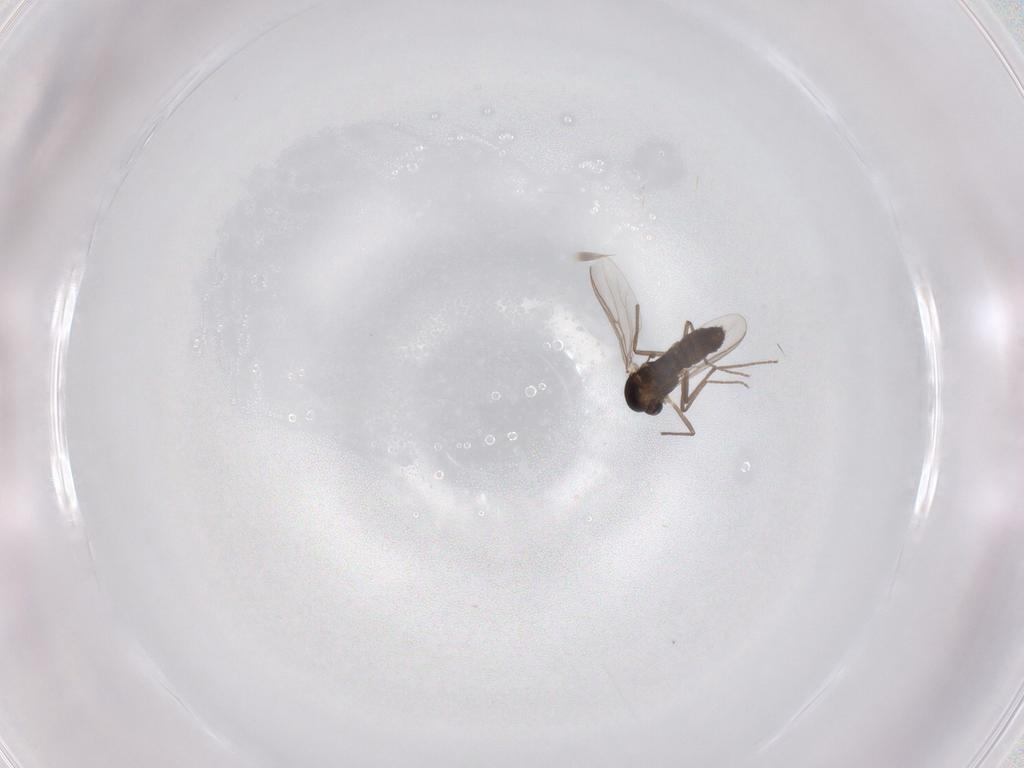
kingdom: Animalia
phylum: Arthropoda
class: Insecta
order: Diptera
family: Chironomidae
